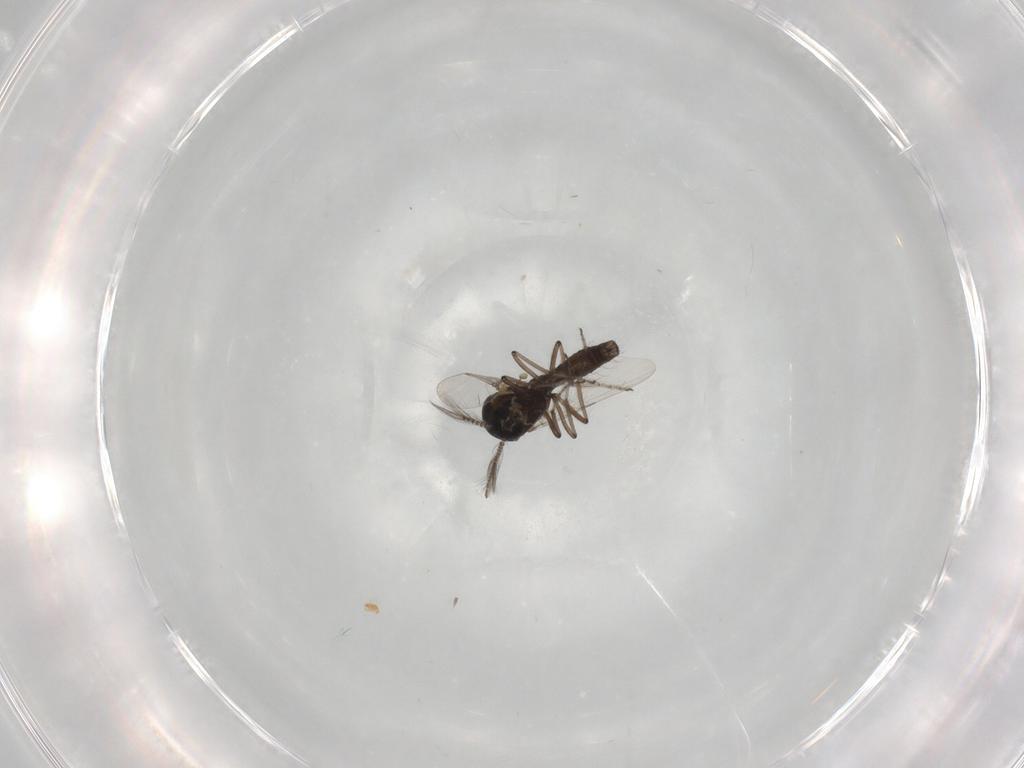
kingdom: Animalia
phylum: Arthropoda
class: Insecta
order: Diptera
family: Ceratopogonidae
